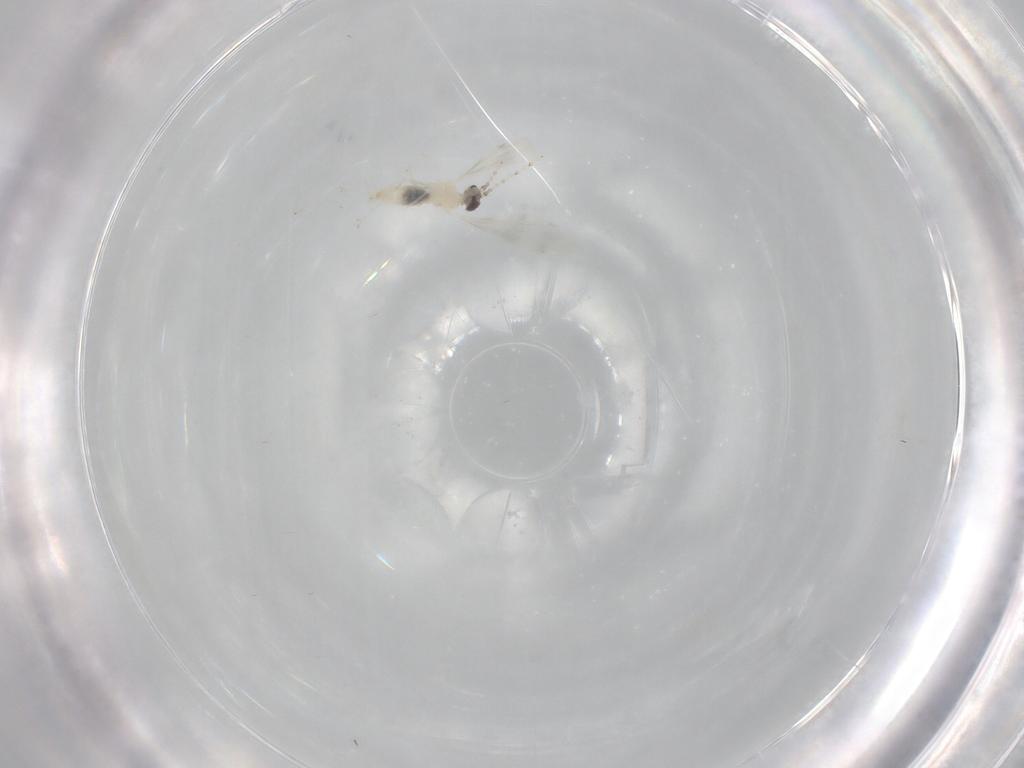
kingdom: Animalia
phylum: Arthropoda
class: Insecta
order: Diptera
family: Cecidomyiidae
